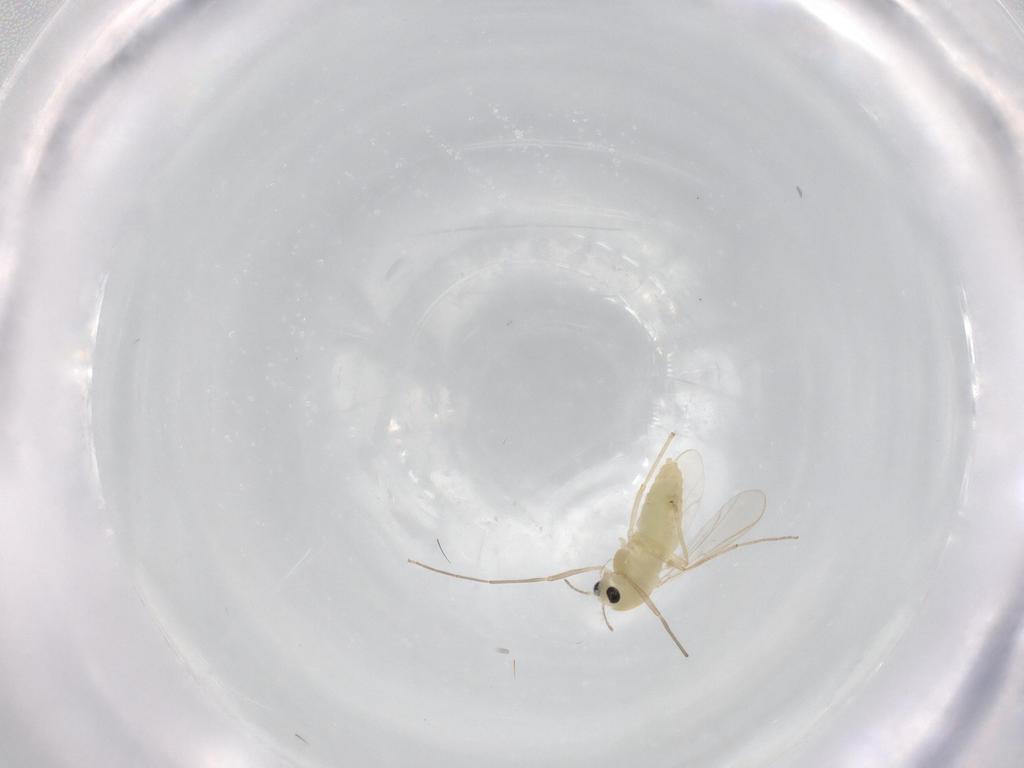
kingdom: Animalia
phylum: Arthropoda
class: Insecta
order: Diptera
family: Chironomidae
